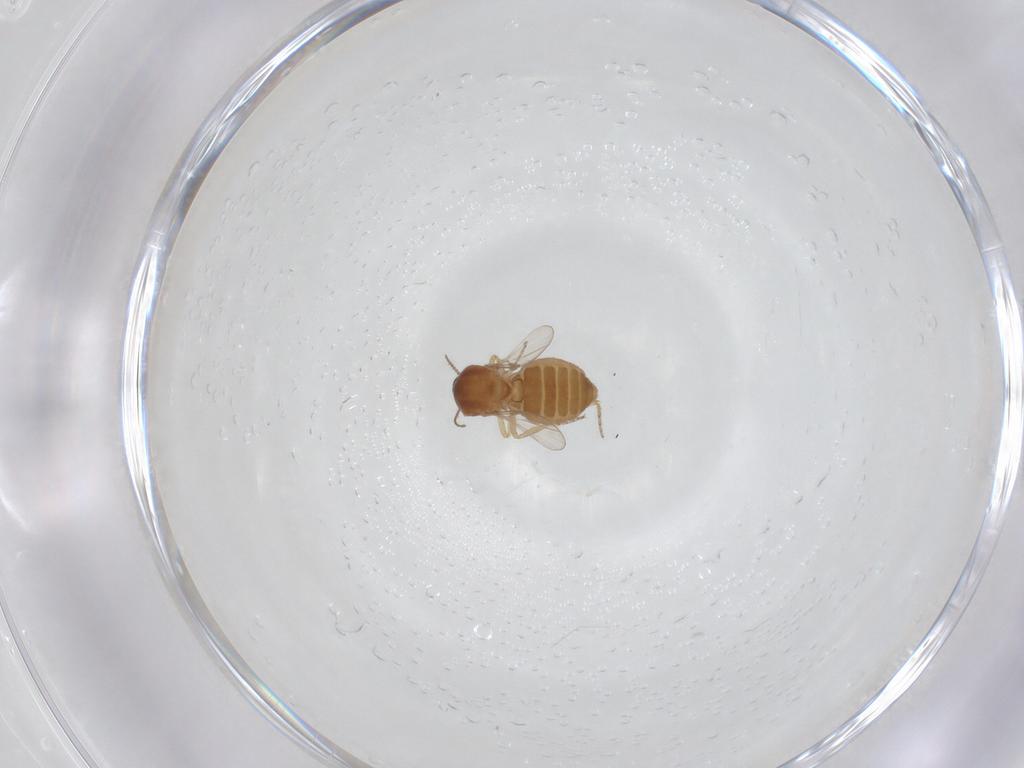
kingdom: Animalia
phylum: Arthropoda
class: Insecta
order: Diptera
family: Ceratopogonidae
